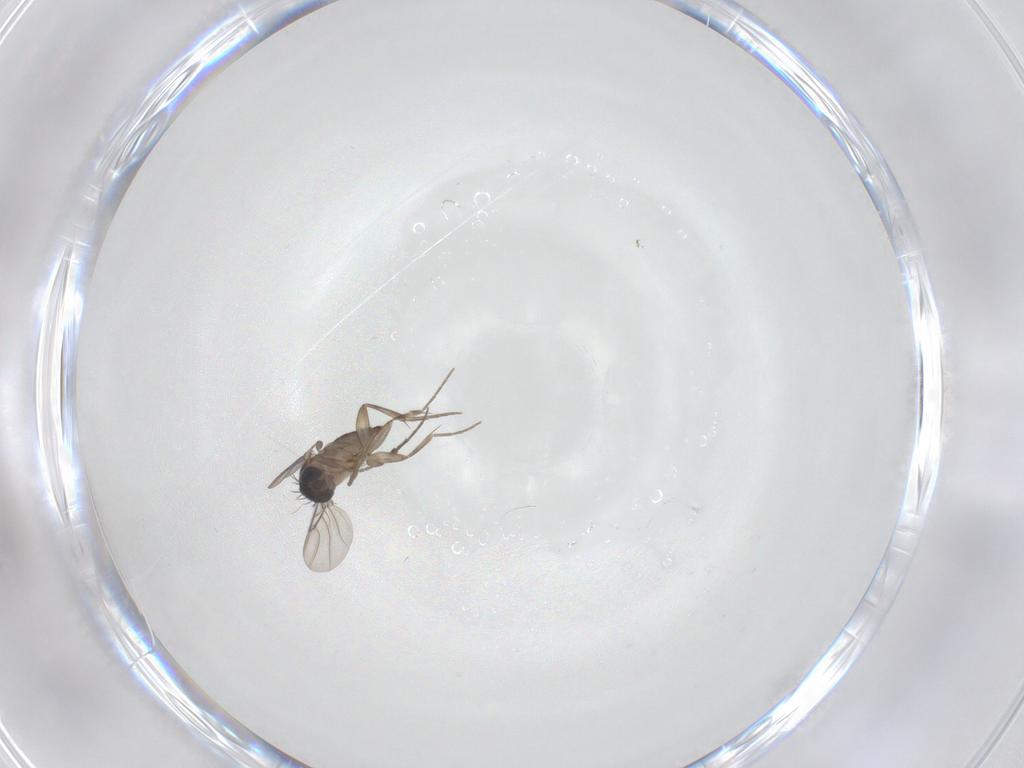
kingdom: Animalia
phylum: Arthropoda
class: Insecta
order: Diptera
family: Phoridae
